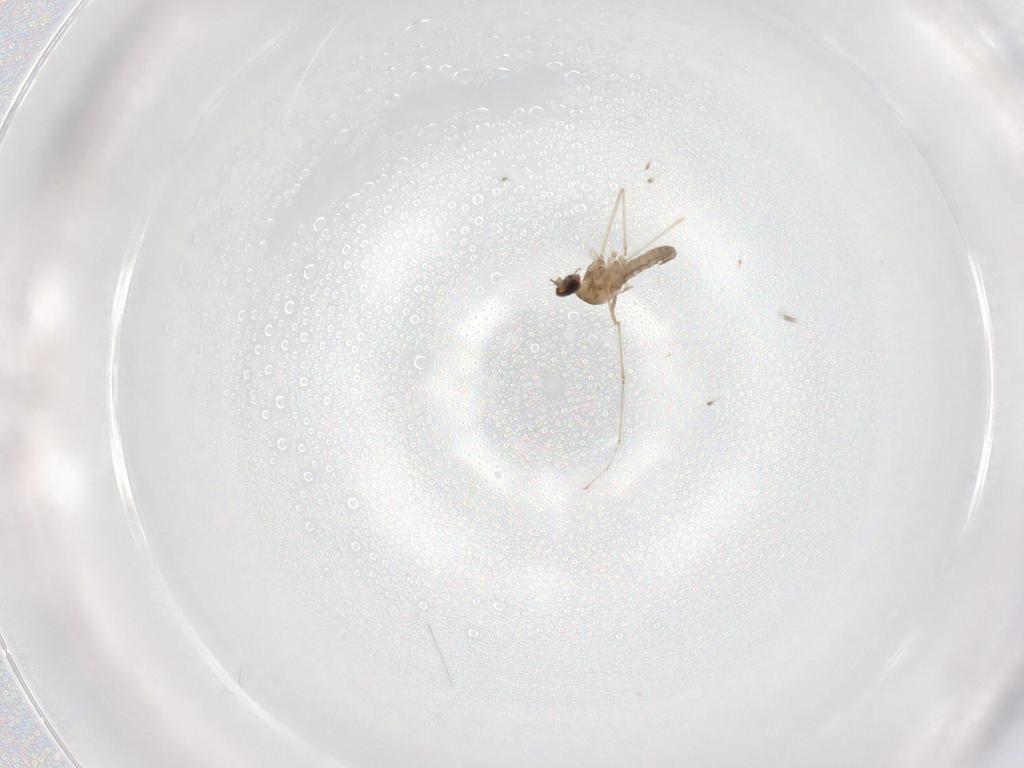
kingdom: Animalia
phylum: Arthropoda
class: Insecta
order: Diptera
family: Cecidomyiidae
